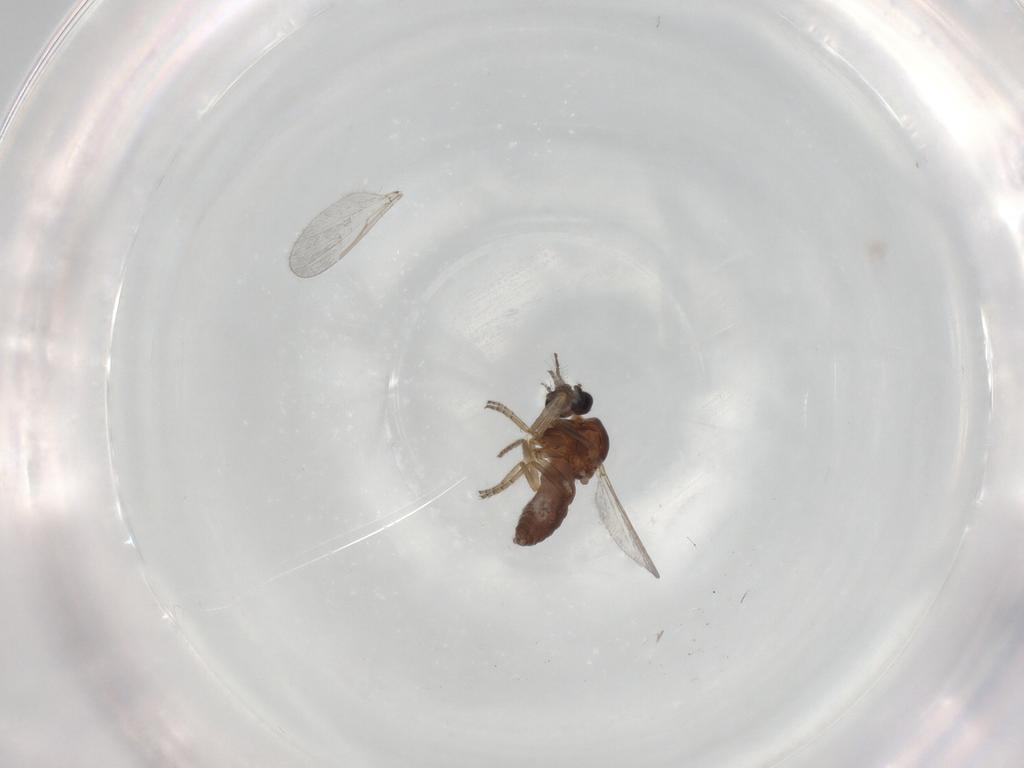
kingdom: Animalia
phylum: Arthropoda
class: Insecta
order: Diptera
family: Ceratopogonidae
